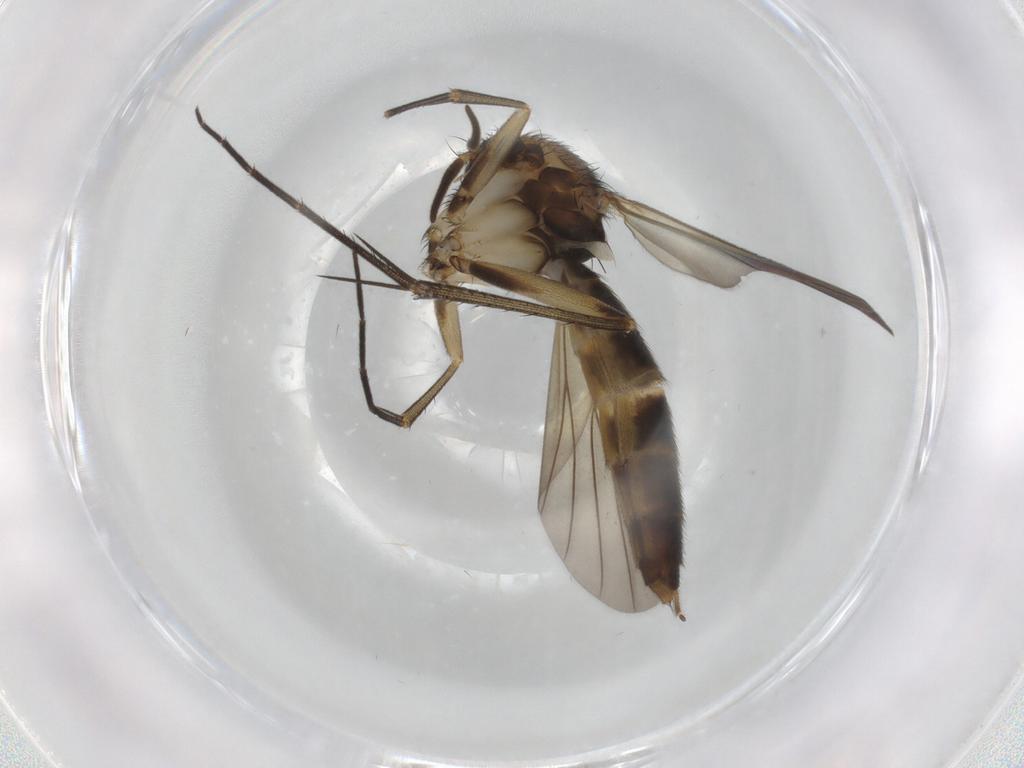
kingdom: Animalia
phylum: Arthropoda
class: Insecta
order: Diptera
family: Mycetophilidae
